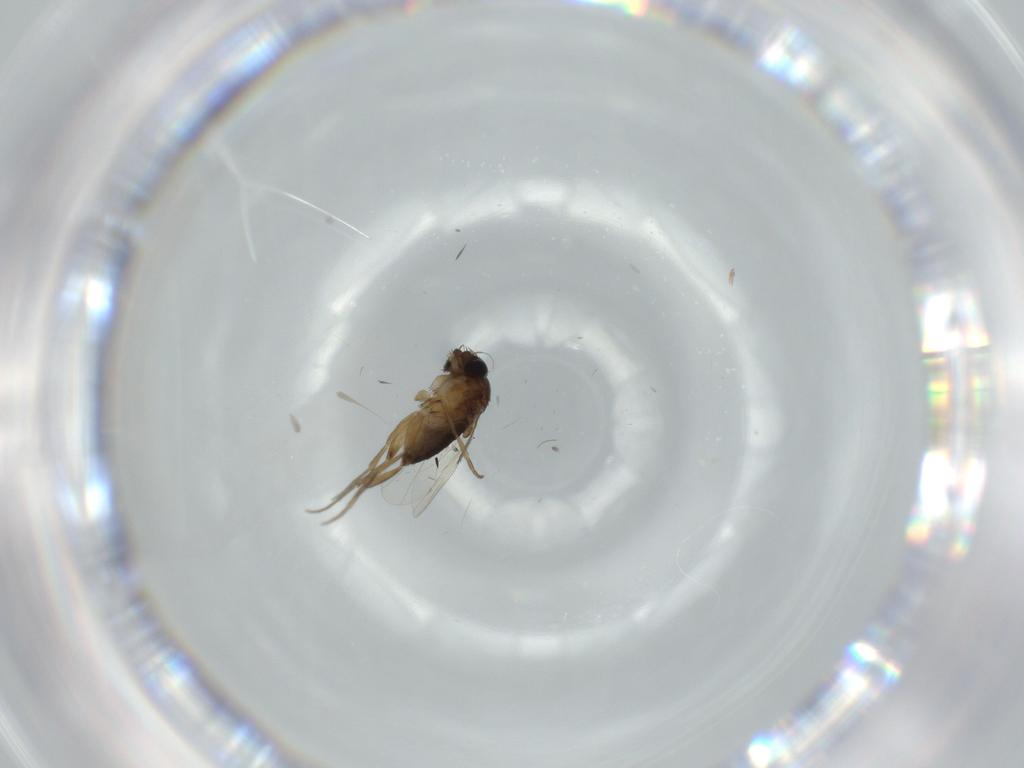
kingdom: Animalia
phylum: Arthropoda
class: Insecta
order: Diptera
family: Phoridae
